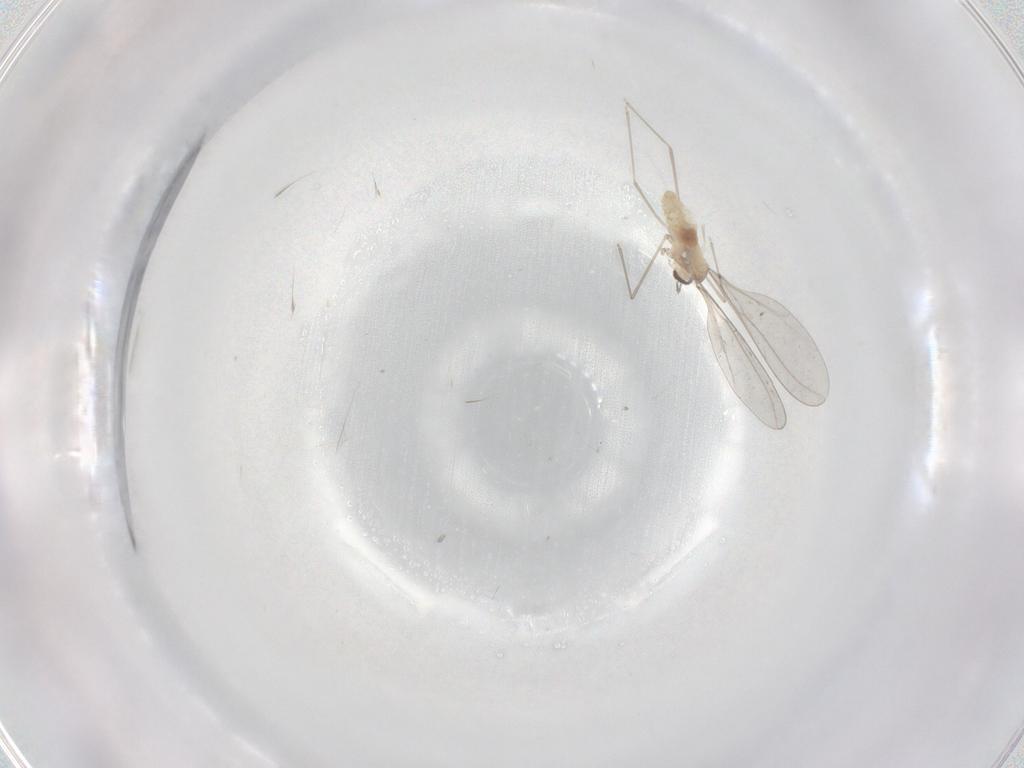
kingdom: Animalia
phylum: Arthropoda
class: Insecta
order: Diptera
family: Cecidomyiidae
